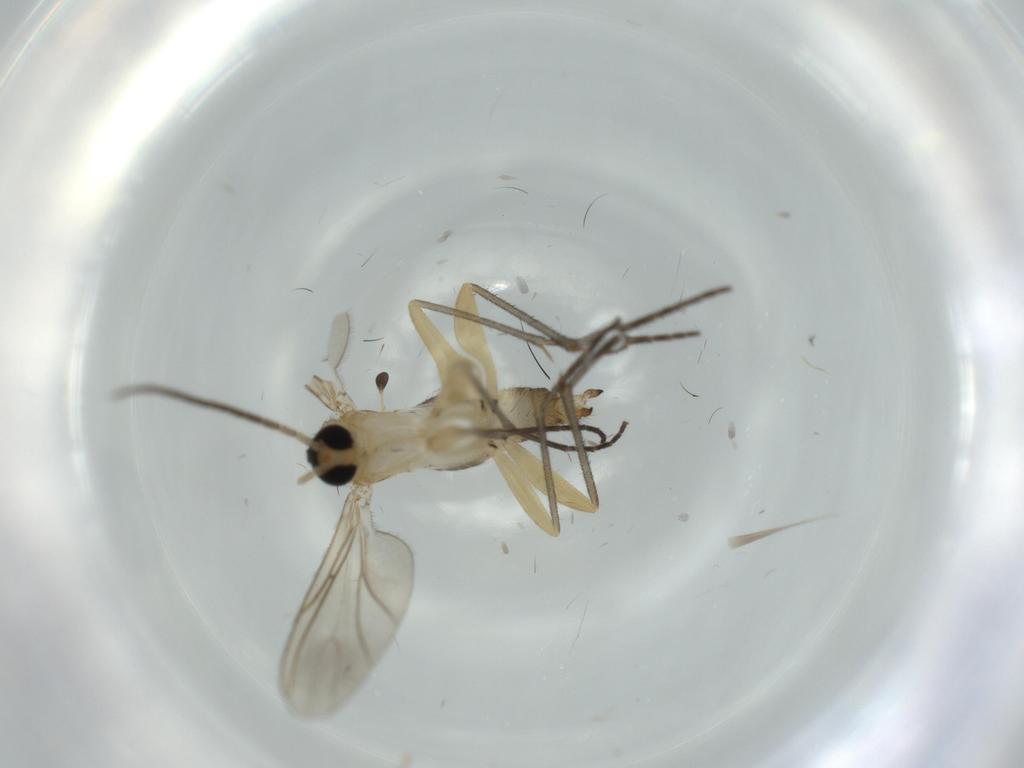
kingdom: Animalia
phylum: Arthropoda
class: Insecta
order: Diptera
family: Sciaridae
